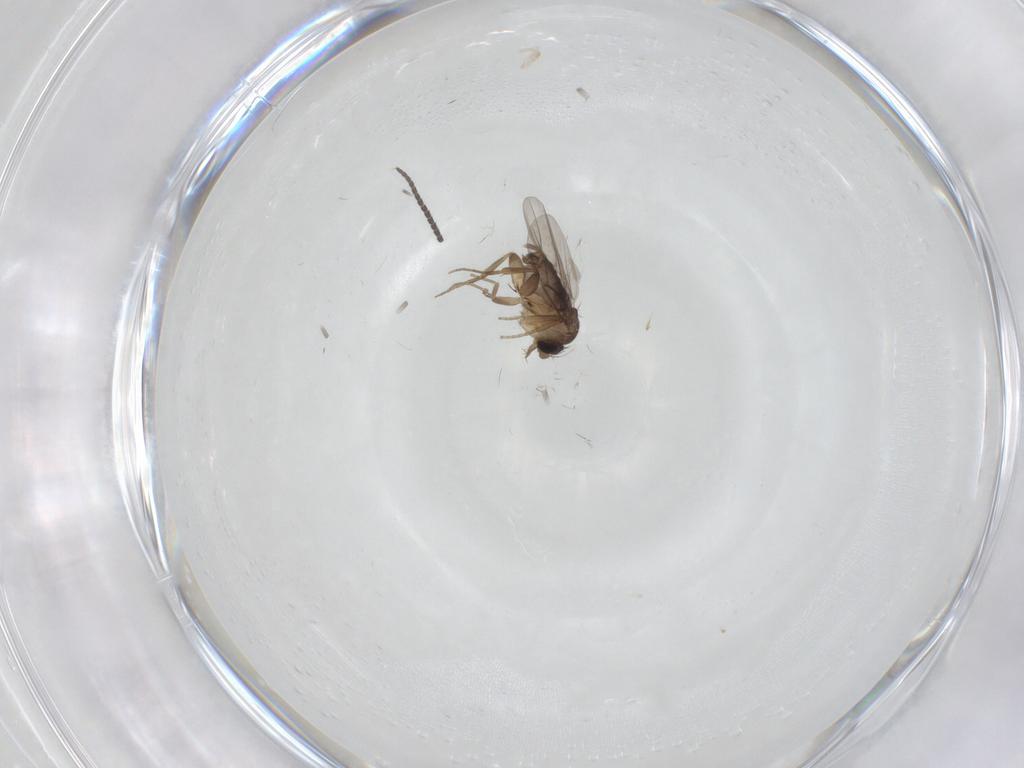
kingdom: Animalia
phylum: Arthropoda
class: Insecta
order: Diptera
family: Sciaridae
